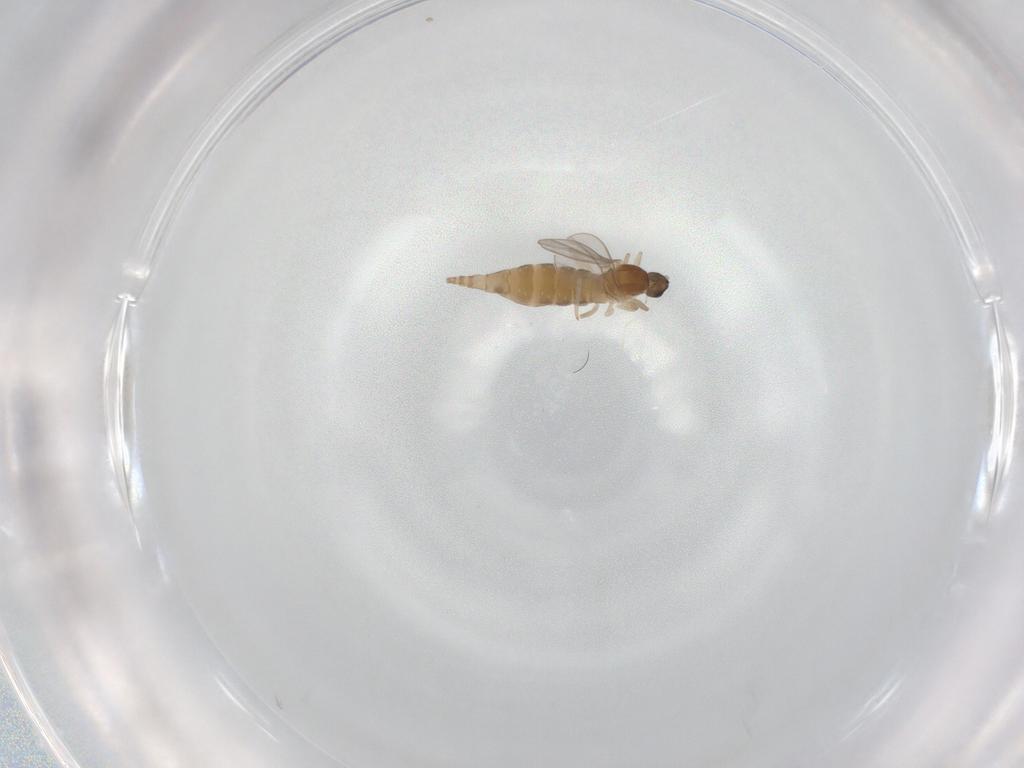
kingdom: Animalia
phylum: Arthropoda
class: Insecta
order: Diptera
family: Cecidomyiidae
